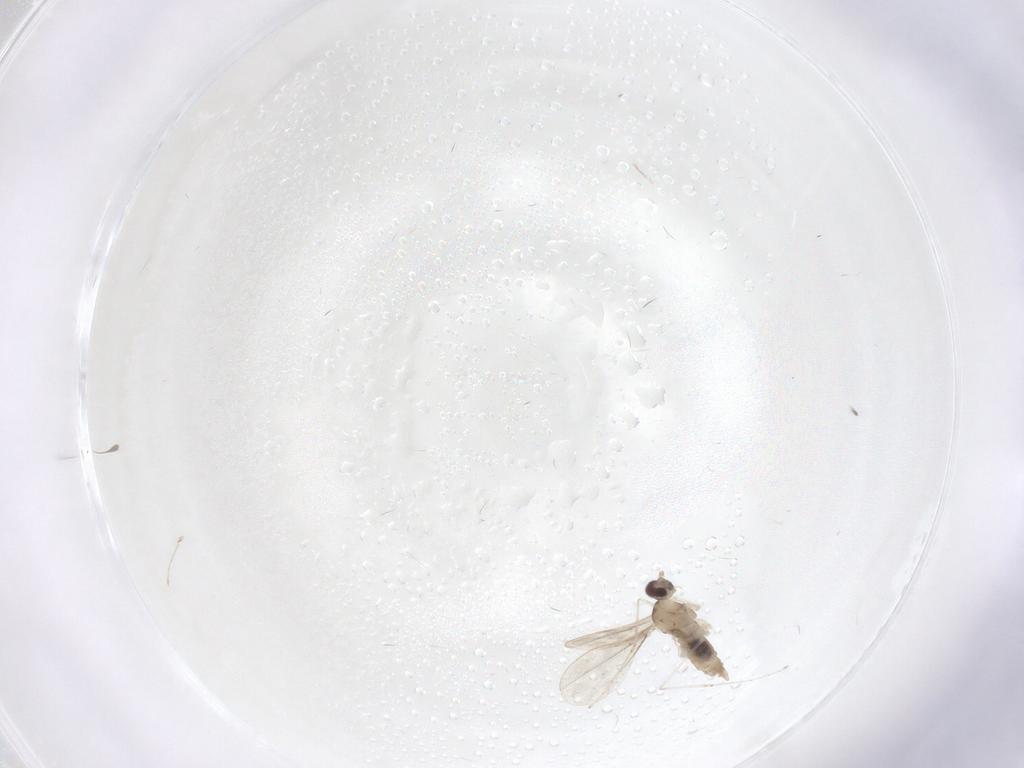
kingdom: Animalia
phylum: Arthropoda
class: Insecta
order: Diptera
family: Cecidomyiidae
